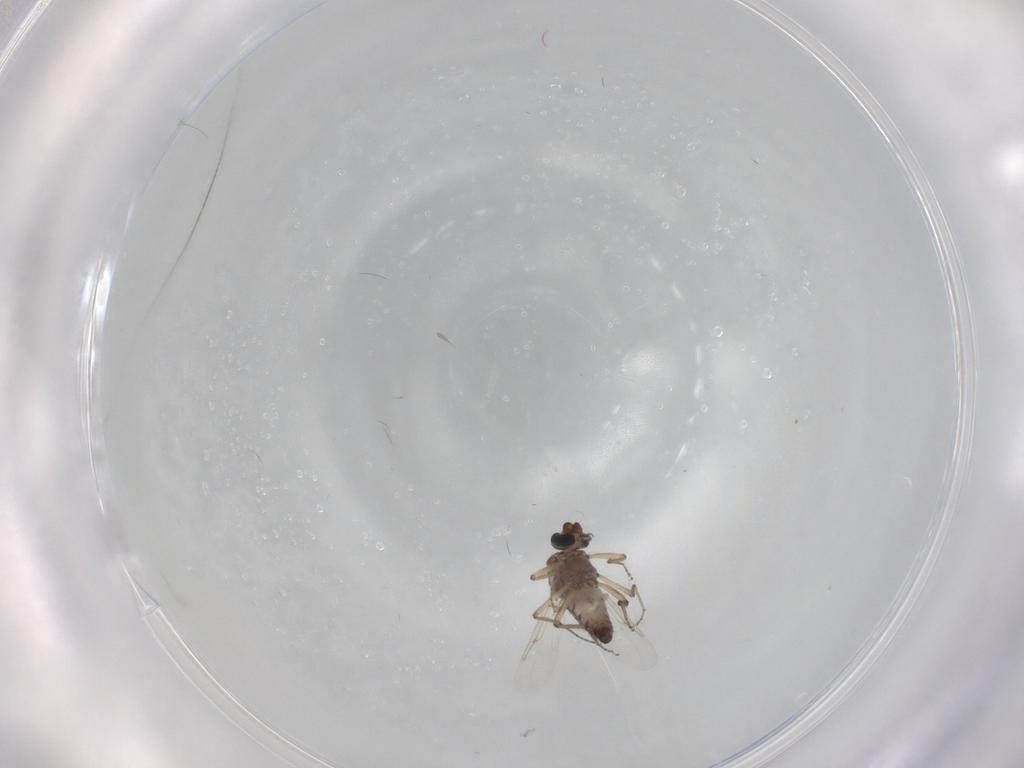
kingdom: Animalia
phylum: Arthropoda
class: Insecta
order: Diptera
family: Ceratopogonidae
